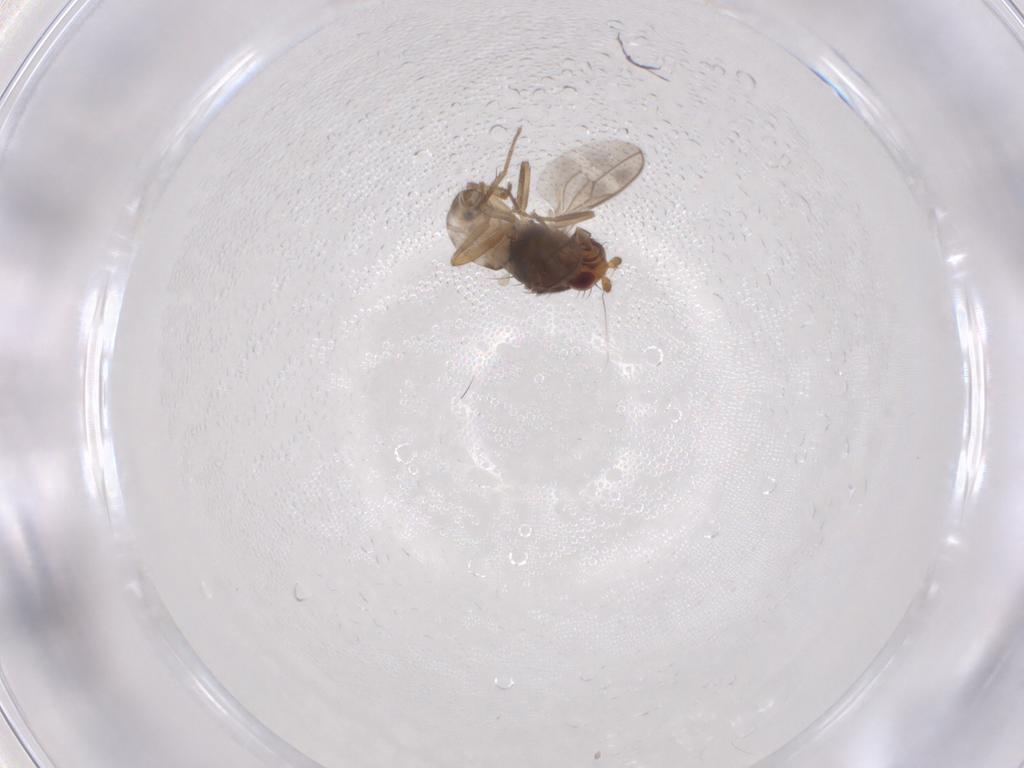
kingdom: Animalia
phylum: Arthropoda
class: Insecta
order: Diptera
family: Sphaeroceridae
